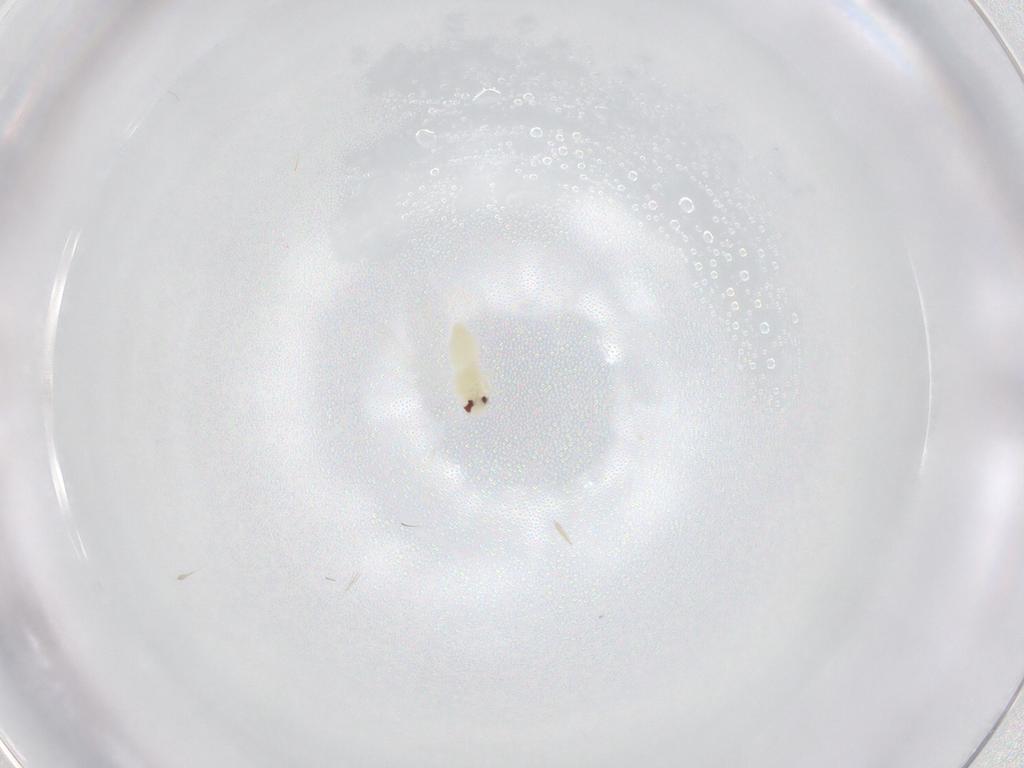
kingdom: Animalia
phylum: Arthropoda
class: Insecta
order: Hemiptera
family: Aleyrodidae
